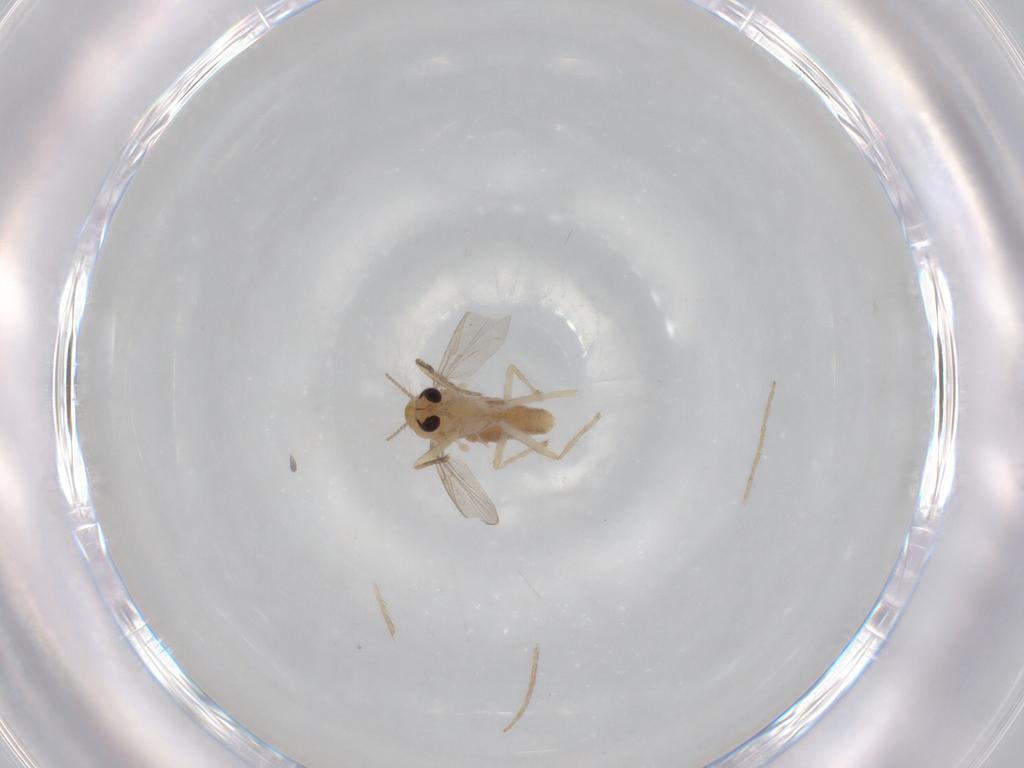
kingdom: Animalia
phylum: Arthropoda
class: Insecta
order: Diptera
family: Chironomidae
